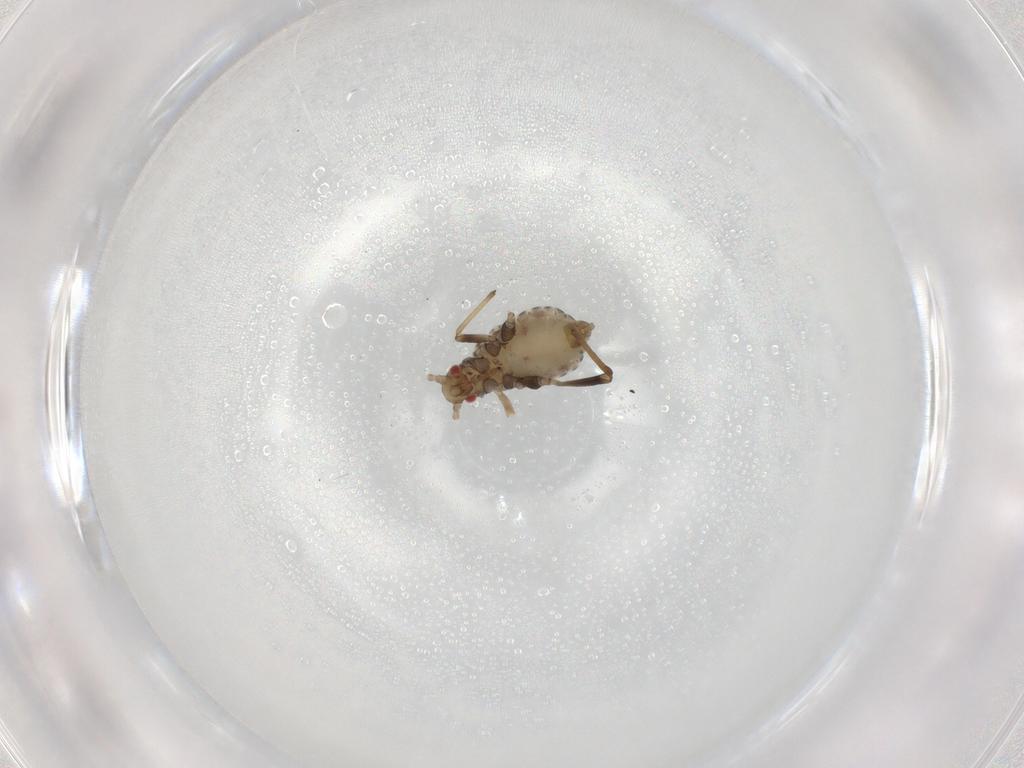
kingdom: Animalia
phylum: Arthropoda
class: Insecta
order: Hemiptera
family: Aphididae
